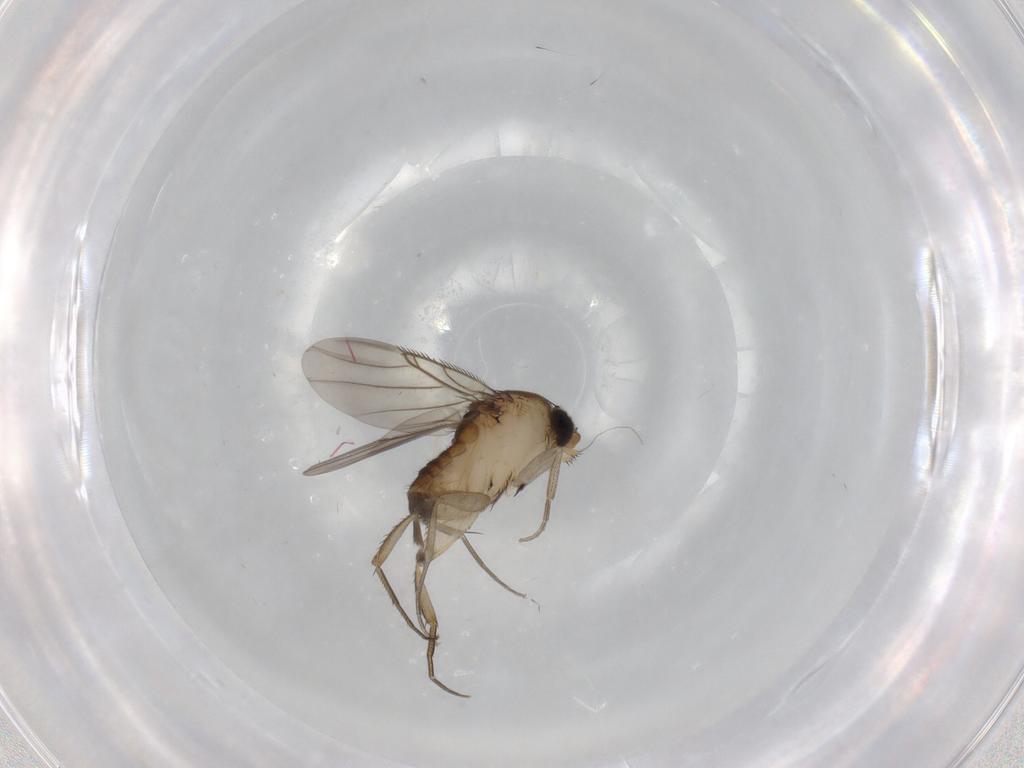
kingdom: Animalia
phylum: Arthropoda
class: Insecta
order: Diptera
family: Phoridae
